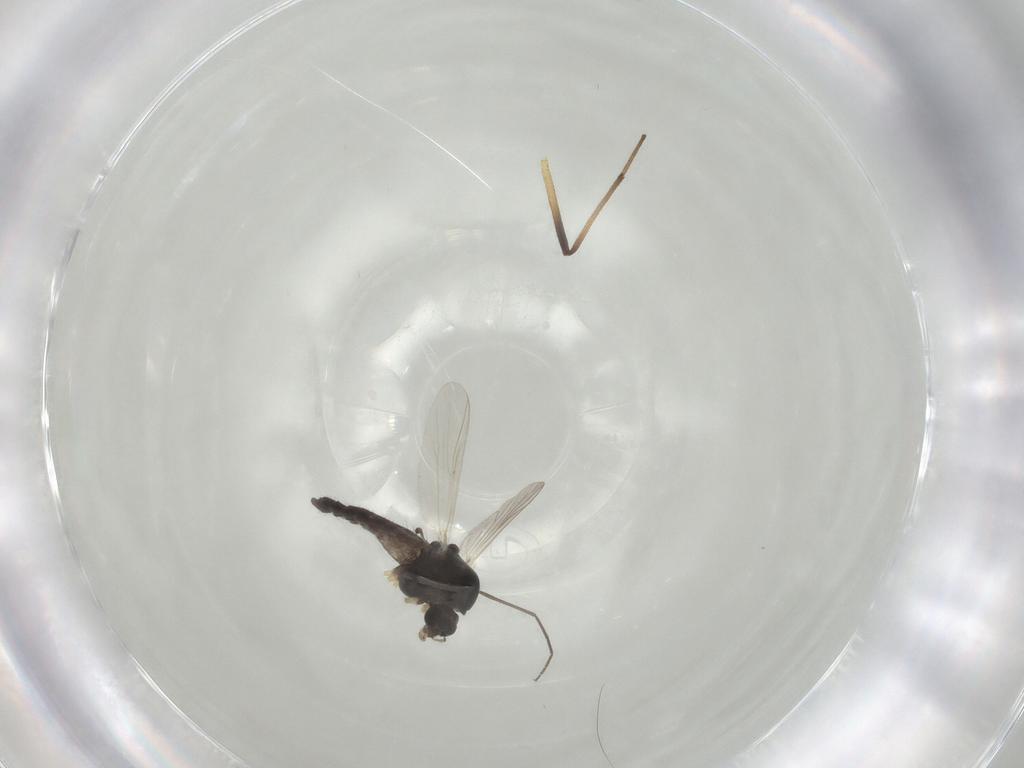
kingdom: Animalia
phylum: Arthropoda
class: Insecta
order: Diptera
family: Chironomidae
